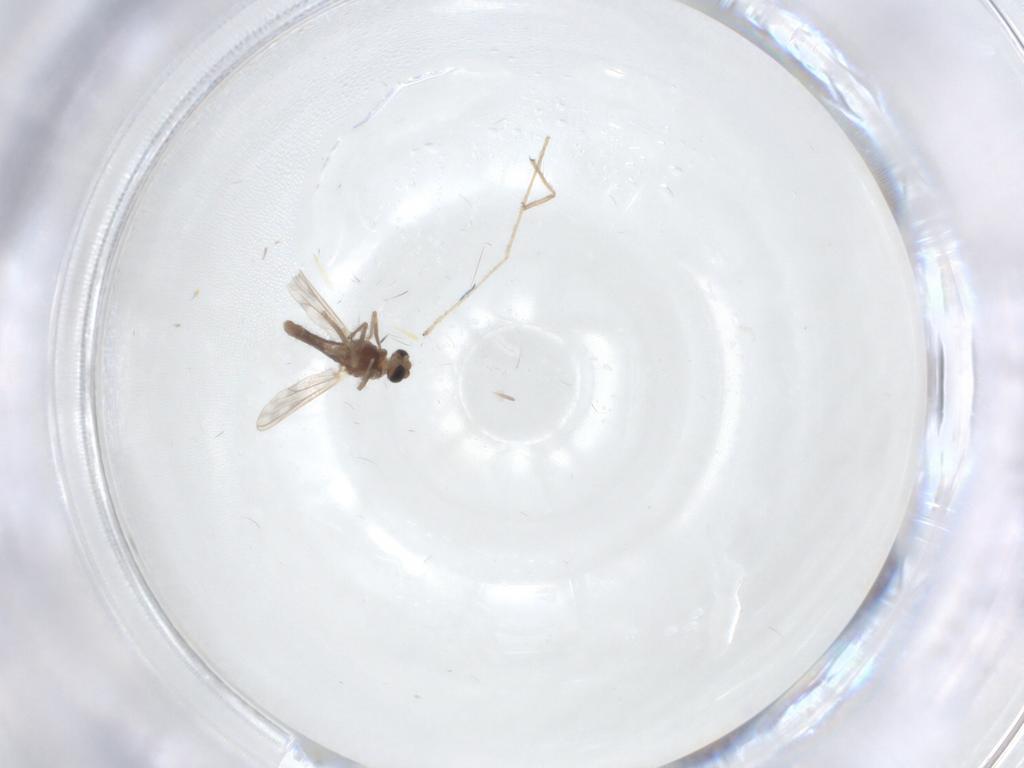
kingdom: Animalia
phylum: Arthropoda
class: Insecta
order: Diptera
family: Chironomidae
